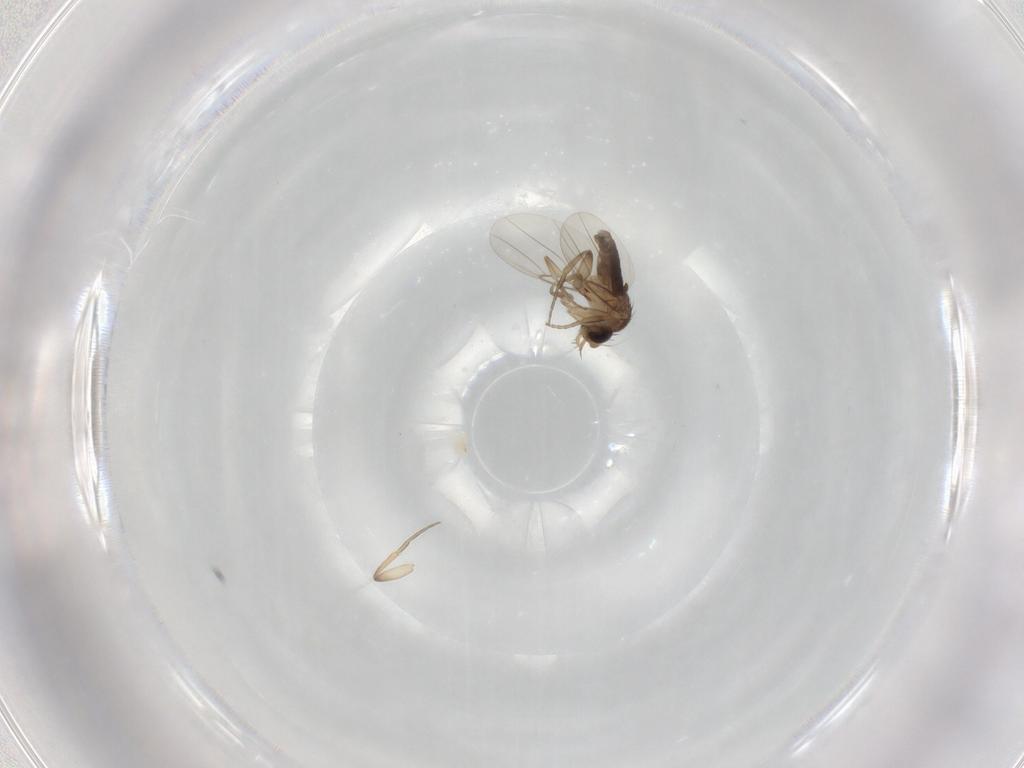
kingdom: Animalia
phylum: Arthropoda
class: Insecta
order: Diptera
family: Phoridae
